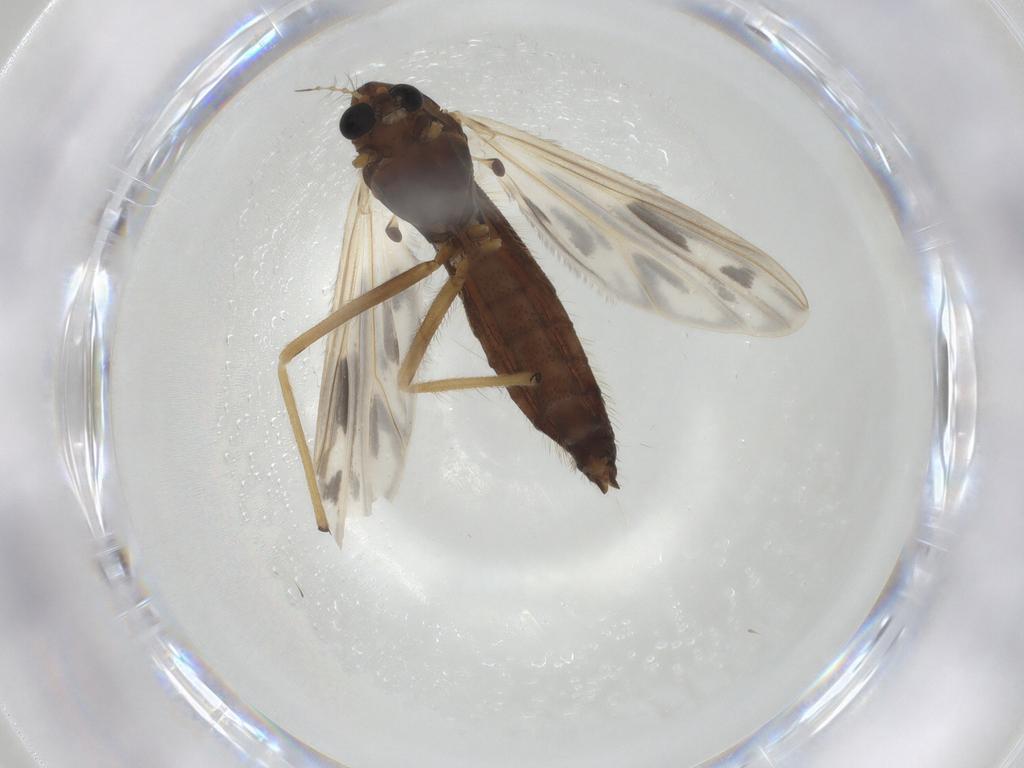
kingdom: Animalia
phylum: Arthropoda
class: Insecta
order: Diptera
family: Chironomidae
